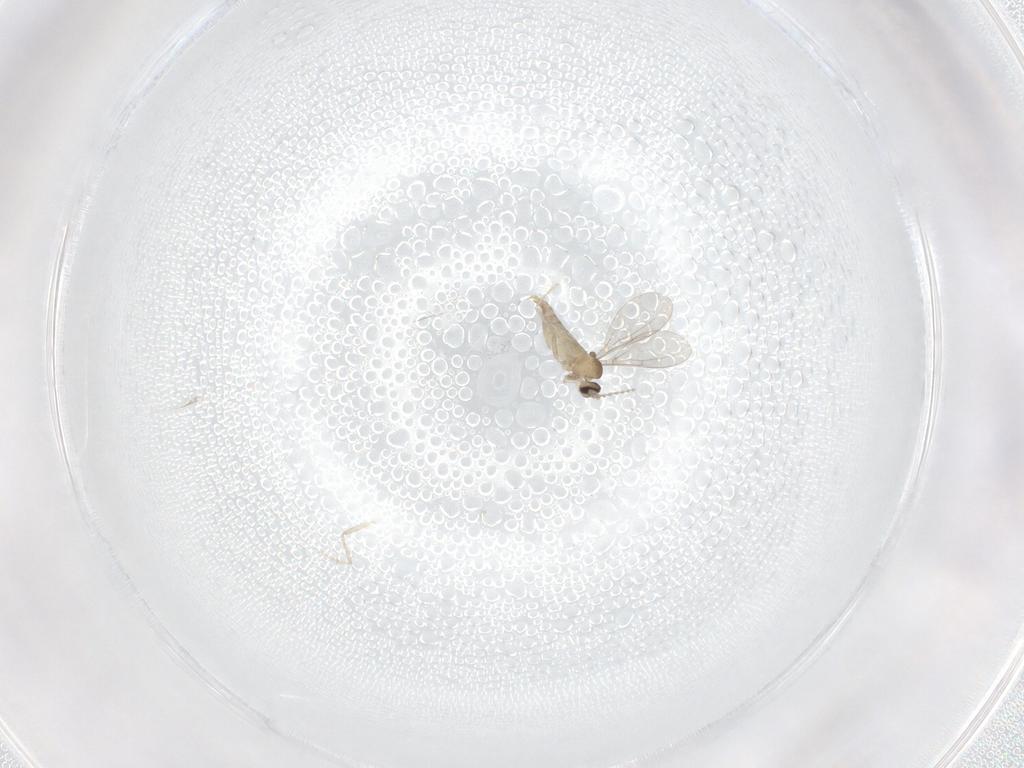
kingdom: Animalia
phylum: Arthropoda
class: Insecta
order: Diptera
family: Cecidomyiidae
